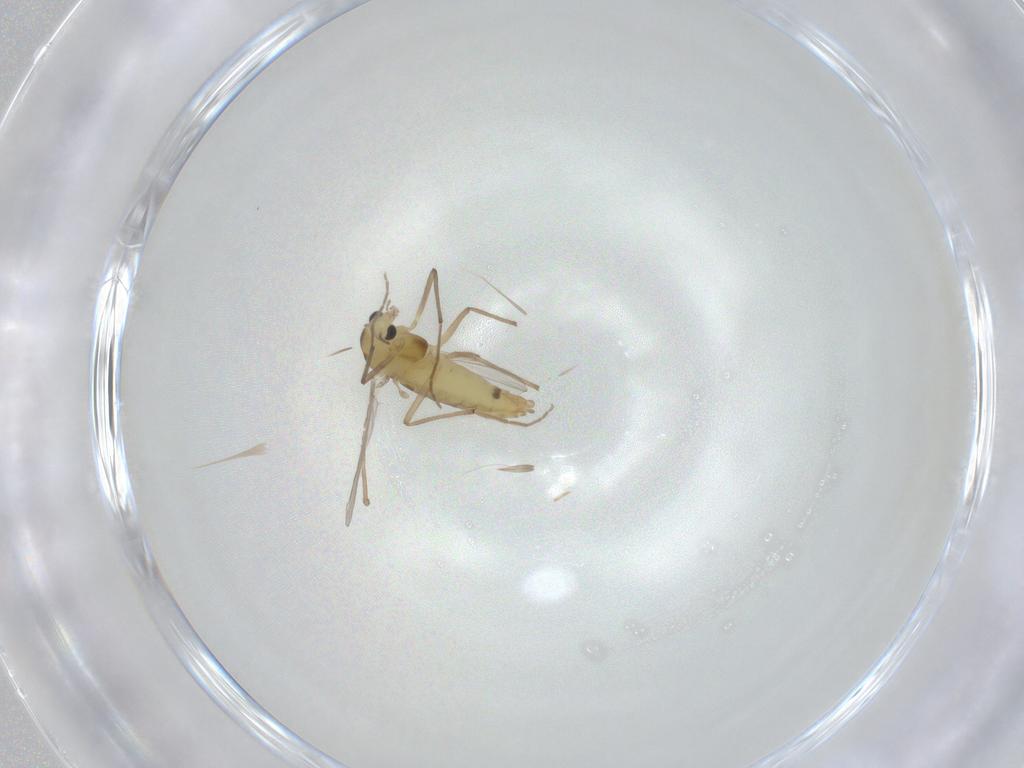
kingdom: Animalia
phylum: Arthropoda
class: Insecta
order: Diptera
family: Chironomidae
